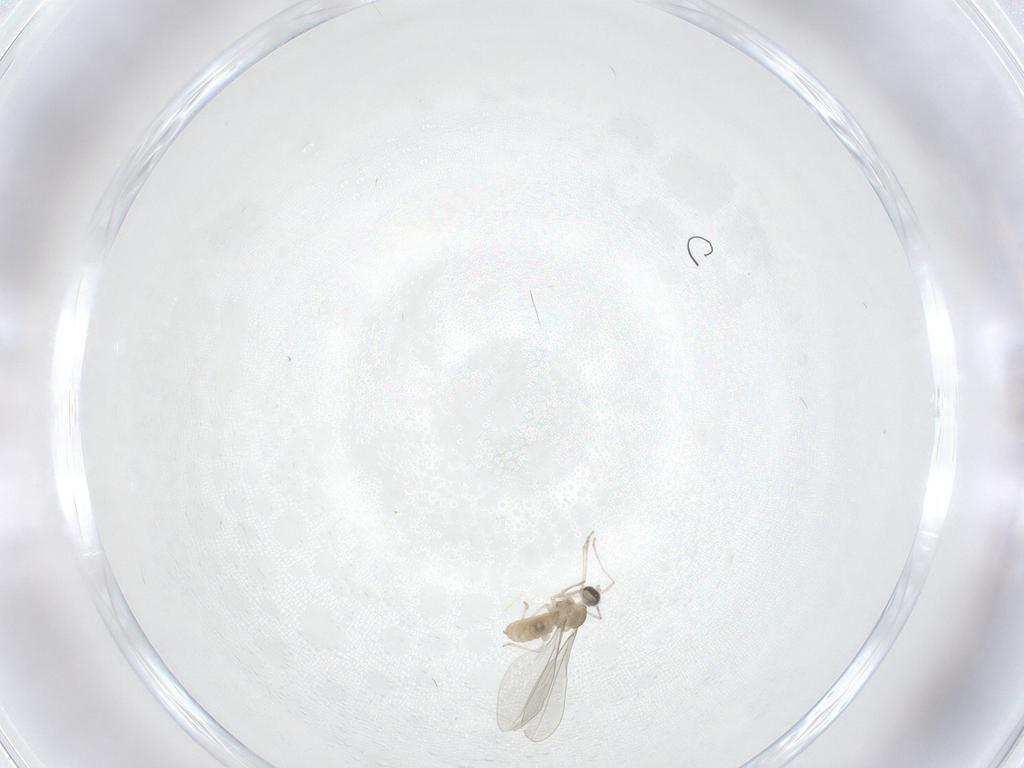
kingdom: Animalia
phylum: Arthropoda
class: Insecta
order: Diptera
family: Cecidomyiidae
